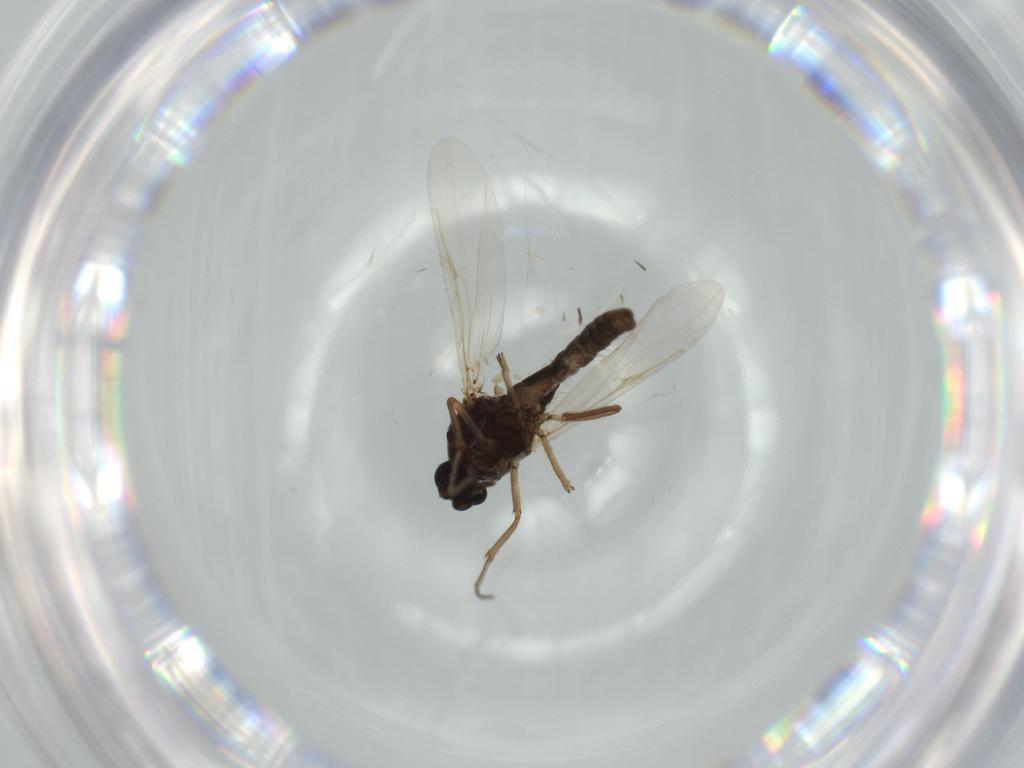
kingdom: Animalia
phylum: Arthropoda
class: Insecta
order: Diptera
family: Ceratopogonidae
